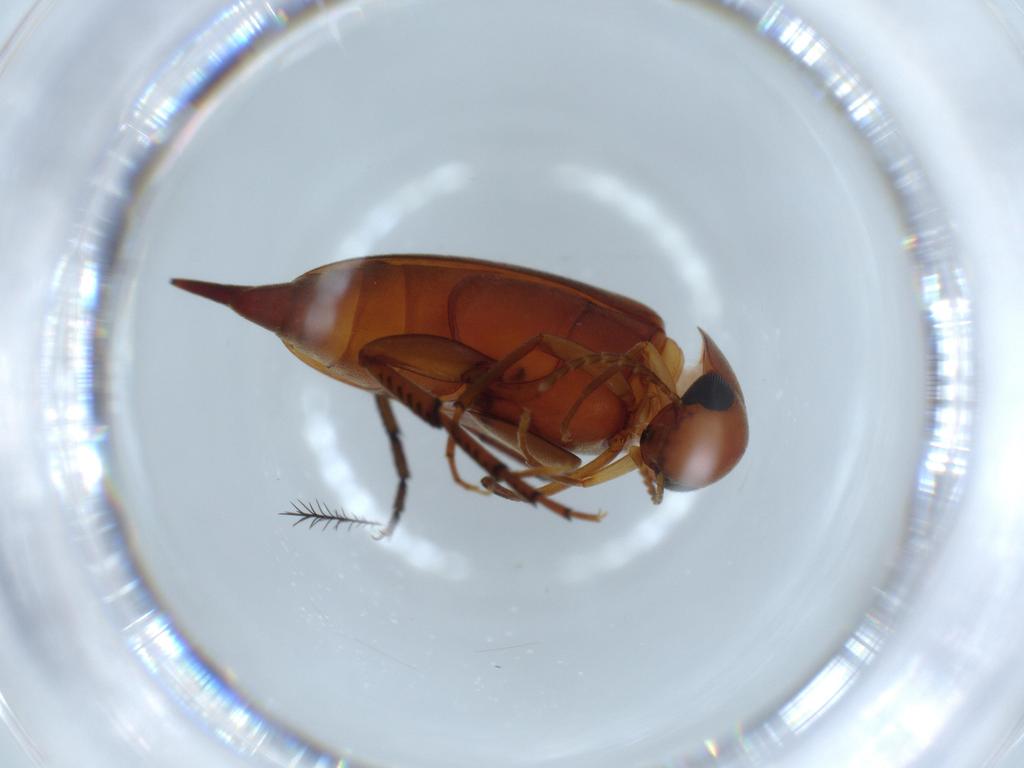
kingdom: Animalia
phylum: Arthropoda
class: Insecta
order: Coleoptera
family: Mordellidae
